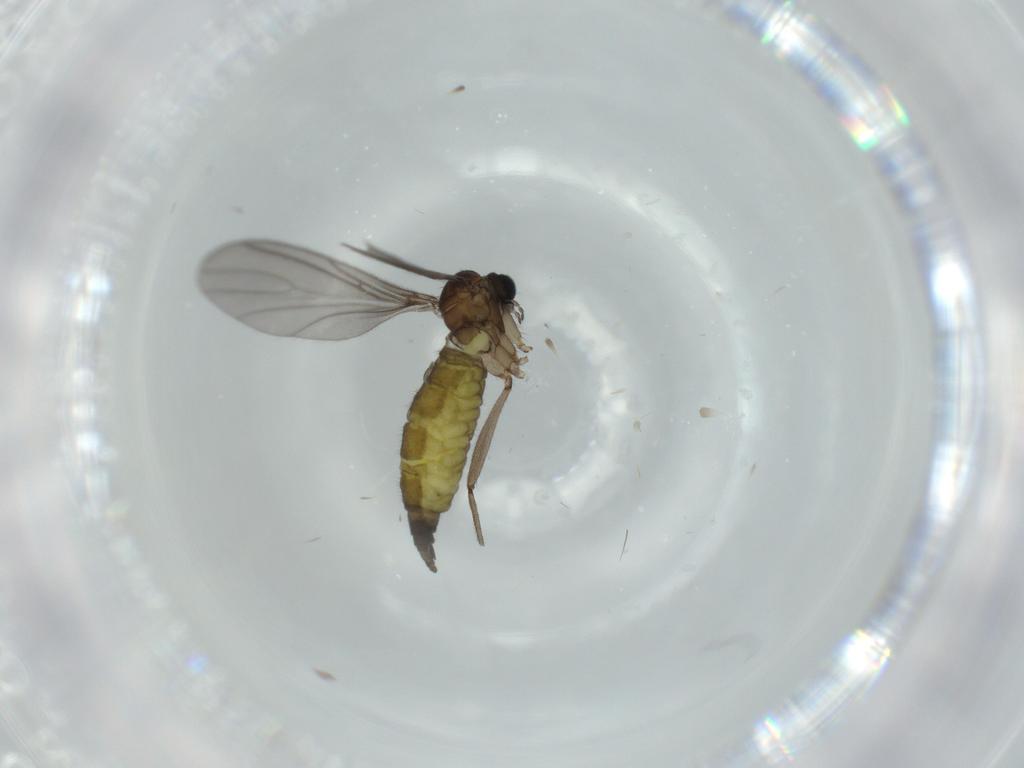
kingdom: Animalia
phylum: Arthropoda
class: Insecta
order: Diptera
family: Sciaridae
